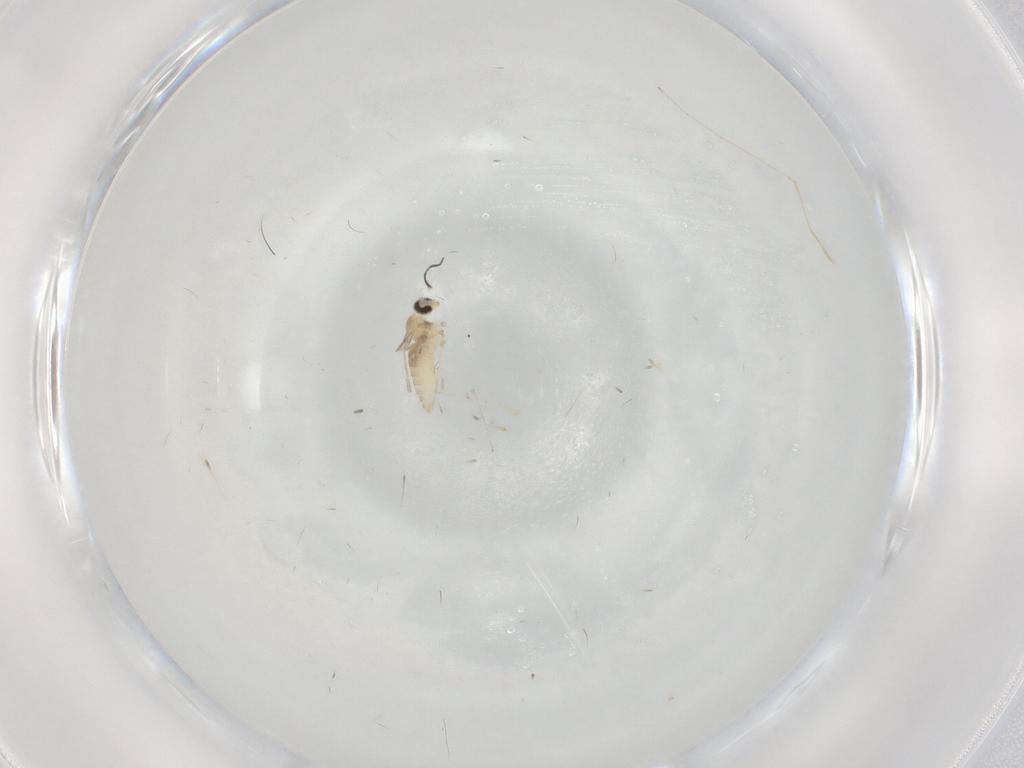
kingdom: Animalia
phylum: Arthropoda
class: Insecta
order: Diptera
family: Cecidomyiidae
